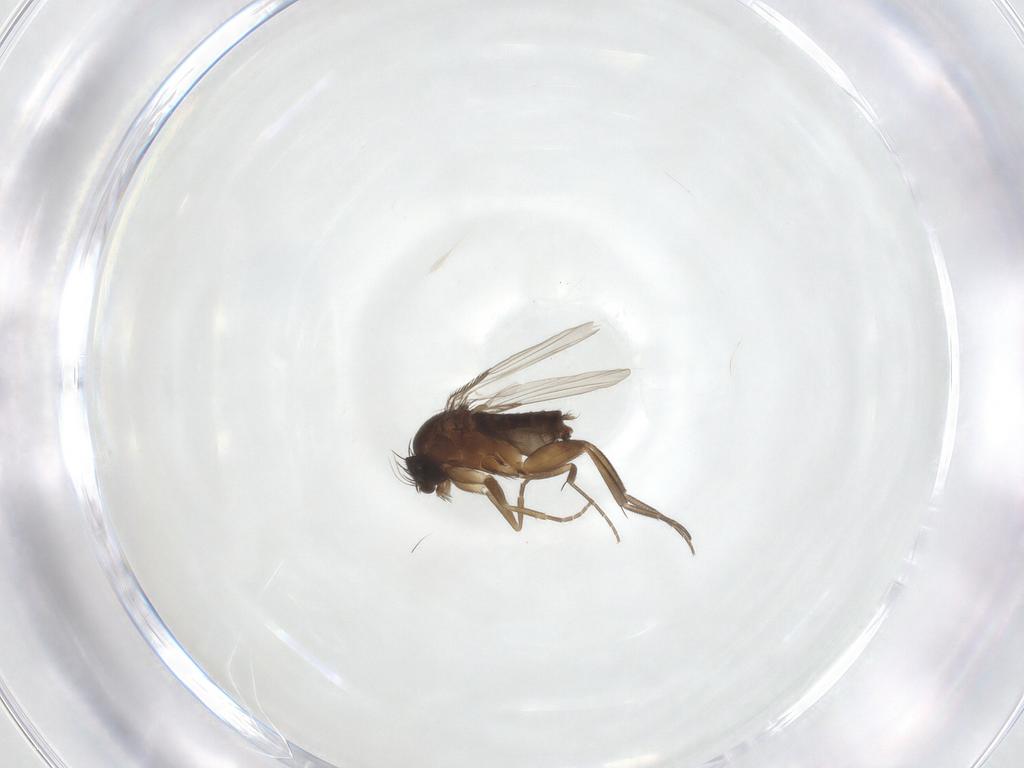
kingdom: Animalia
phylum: Arthropoda
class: Insecta
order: Diptera
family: Phoridae
